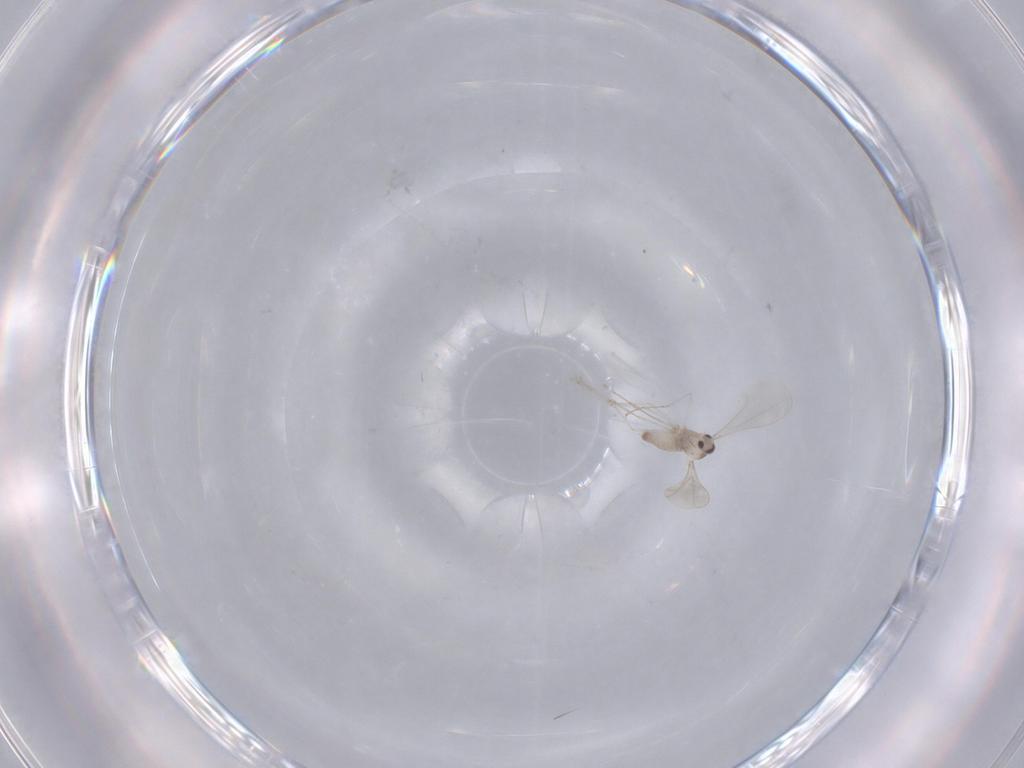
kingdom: Animalia
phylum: Arthropoda
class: Insecta
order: Diptera
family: Cecidomyiidae
